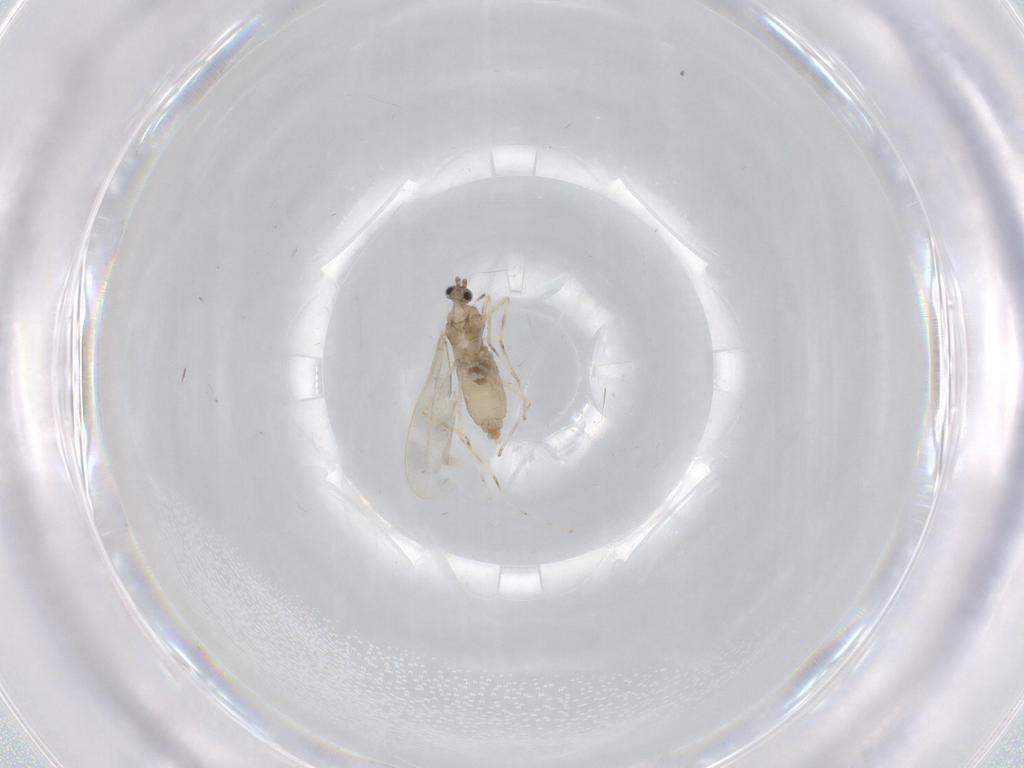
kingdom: Animalia
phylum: Arthropoda
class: Insecta
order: Diptera
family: Cecidomyiidae
